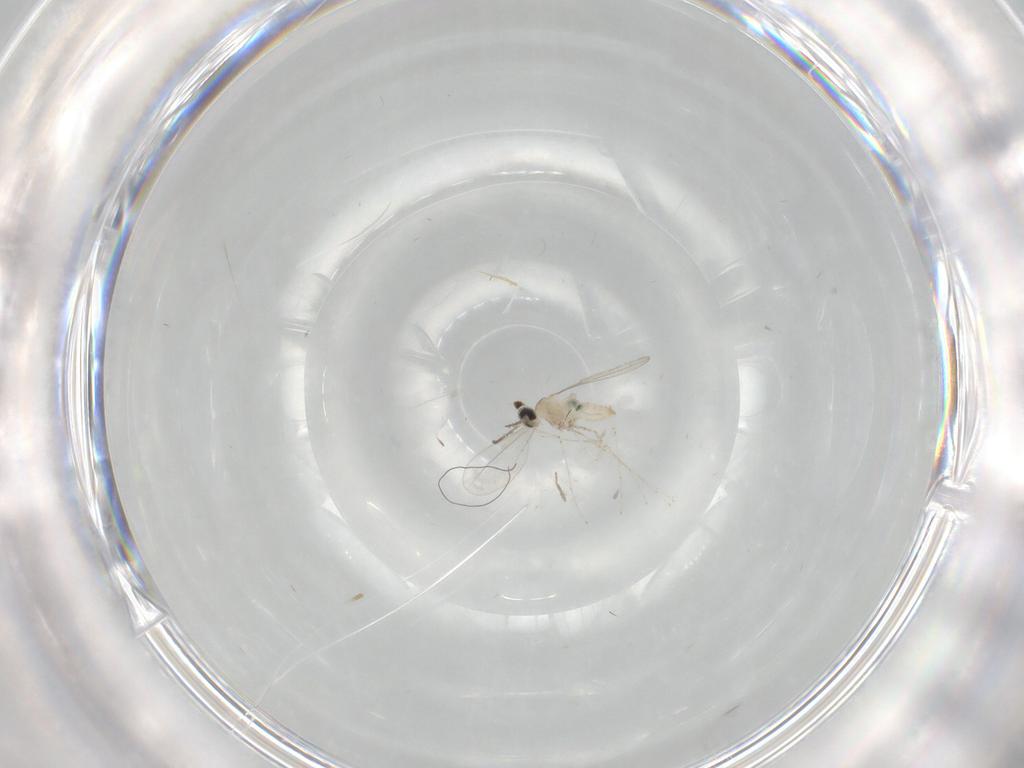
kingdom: Animalia
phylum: Arthropoda
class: Insecta
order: Diptera
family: Cecidomyiidae
